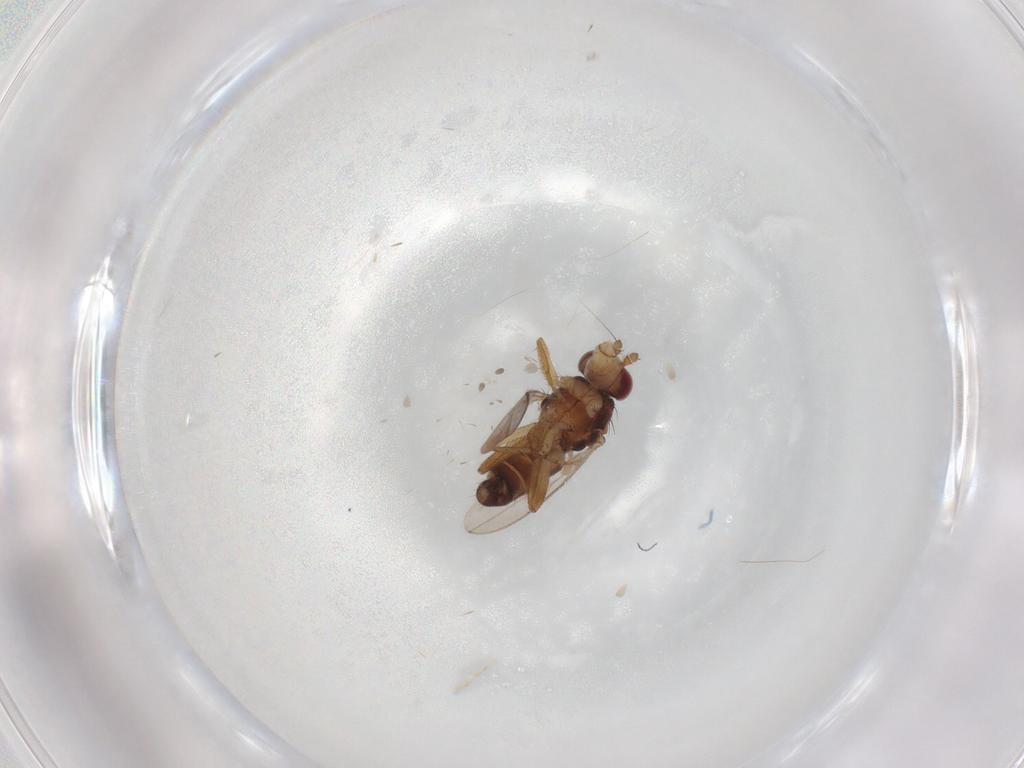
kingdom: Animalia
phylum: Arthropoda
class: Insecta
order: Diptera
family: Sphaeroceridae
